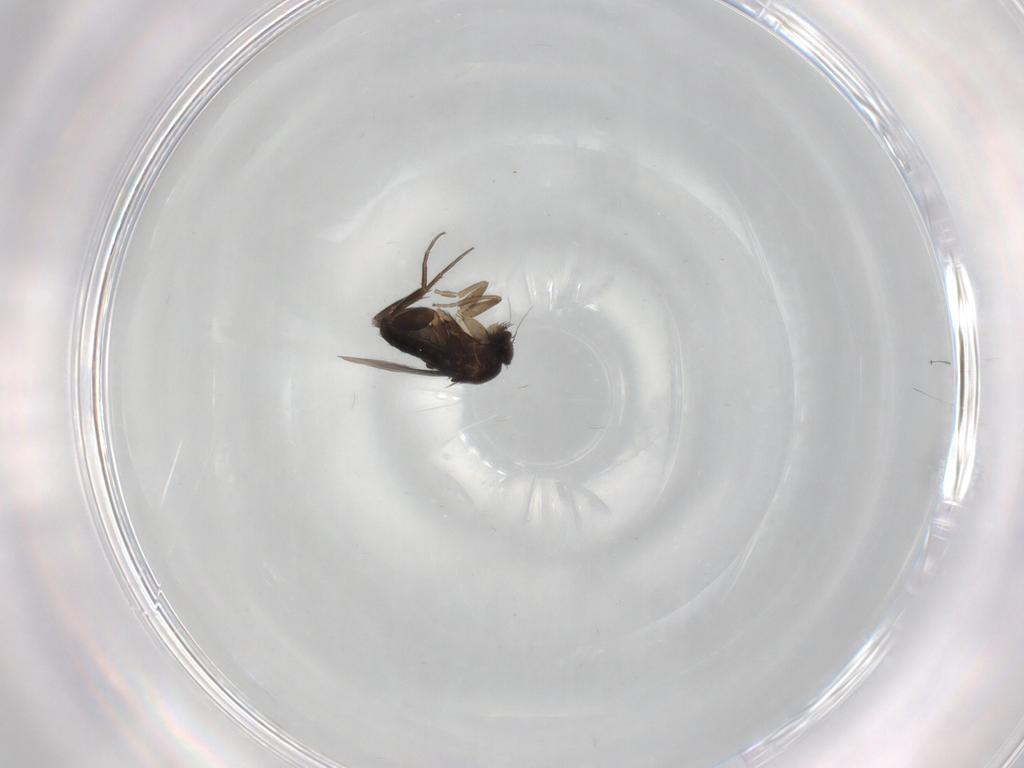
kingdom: Animalia
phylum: Arthropoda
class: Insecta
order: Diptera
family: Phoridae
